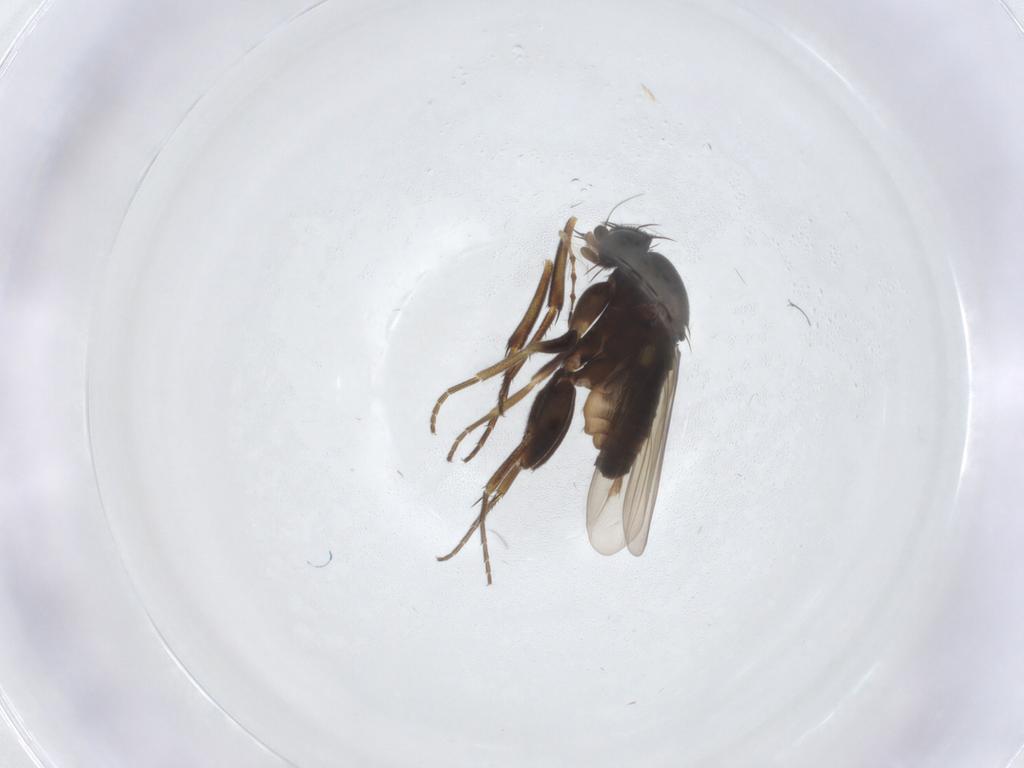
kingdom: Animalia
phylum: Arthropoda
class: Insecta
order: Diptera
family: Phoridae
